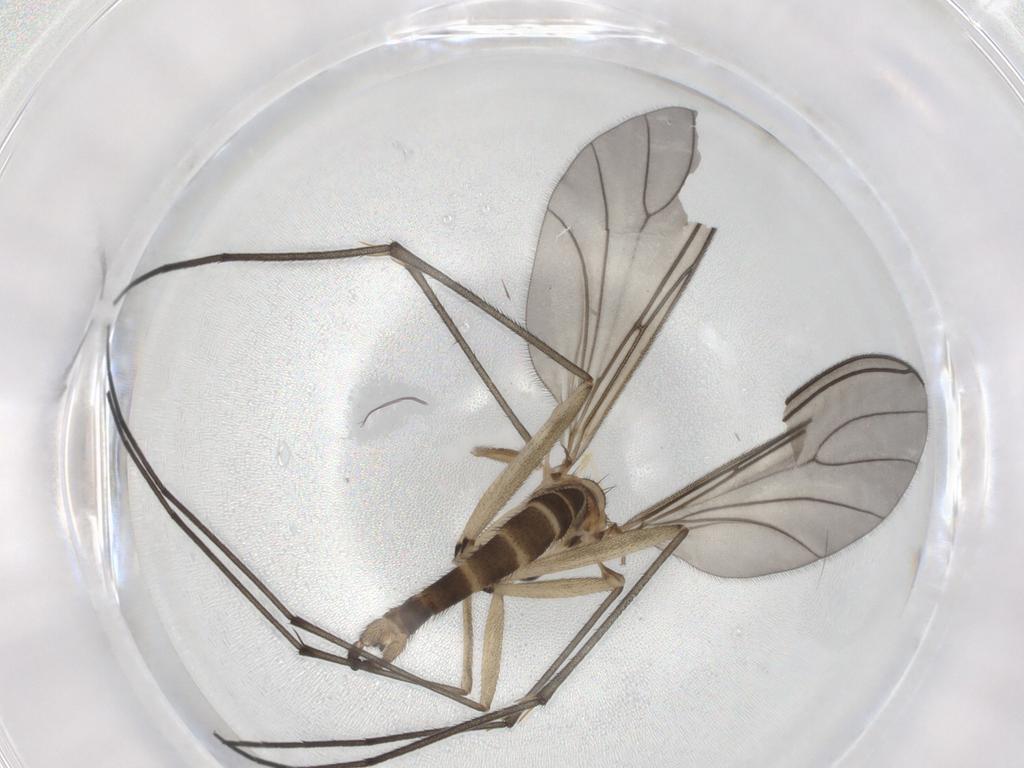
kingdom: Animalia
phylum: Arthropoda
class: Insecta
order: Diptera
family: Sciaridae
